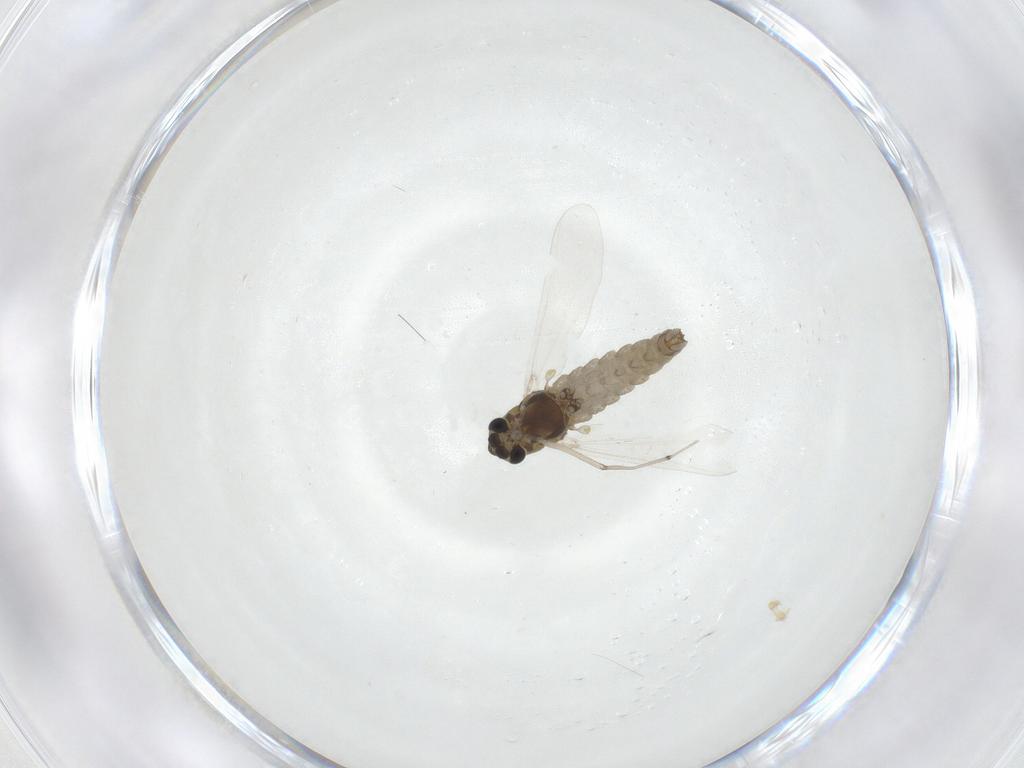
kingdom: Animalia
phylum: Arthropoda
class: Insecta
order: Diptera
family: Chironomidae
